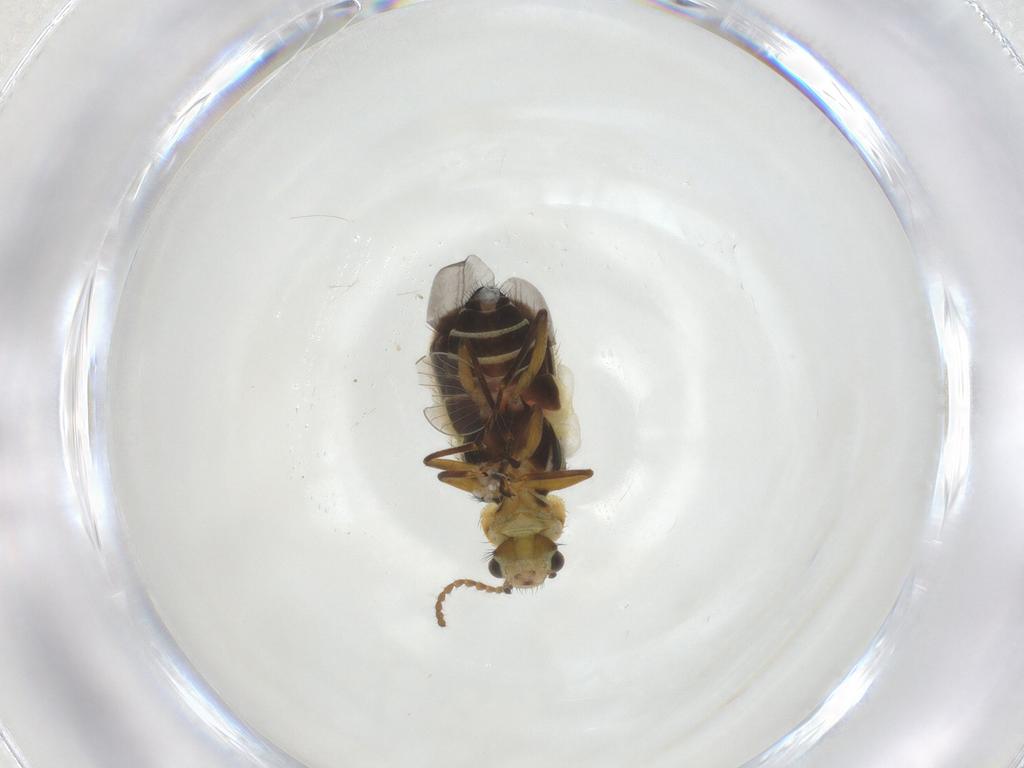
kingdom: Animalia
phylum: Arthropoda
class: Insecta
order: Coleoptera
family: Melyridae
